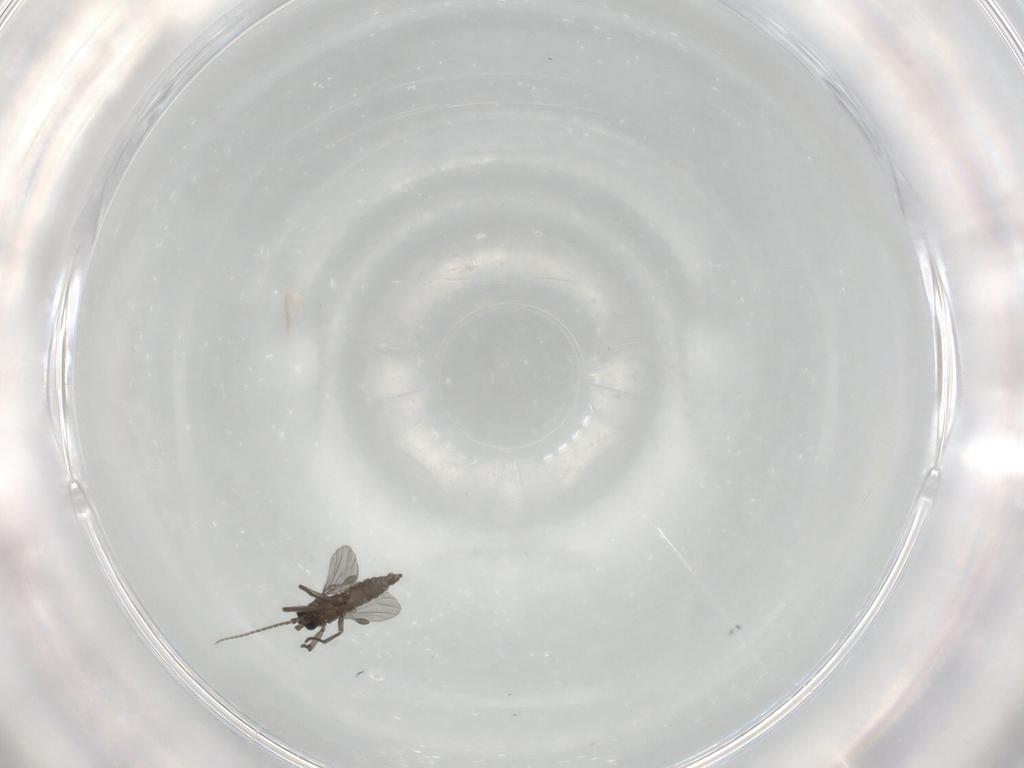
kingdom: Animalia
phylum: Arthropoda
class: Insecta
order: Diptera
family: Sciaridae
